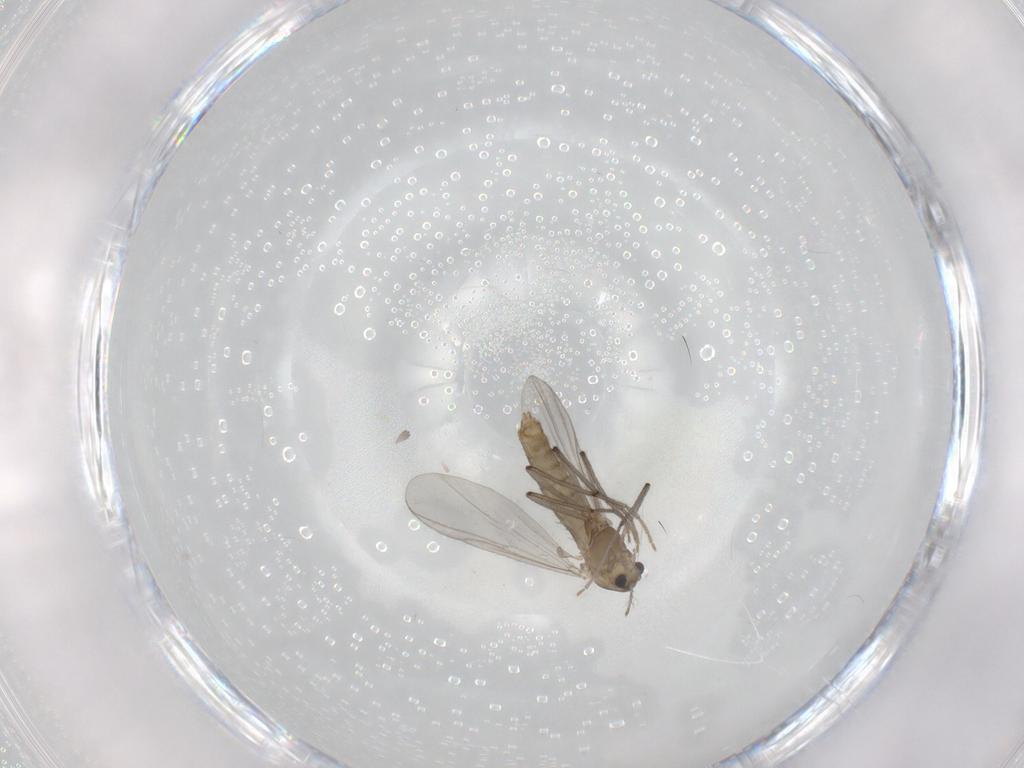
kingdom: Animalia
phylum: Arthropoda
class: Insecta
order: Diptera
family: Chironomidae
